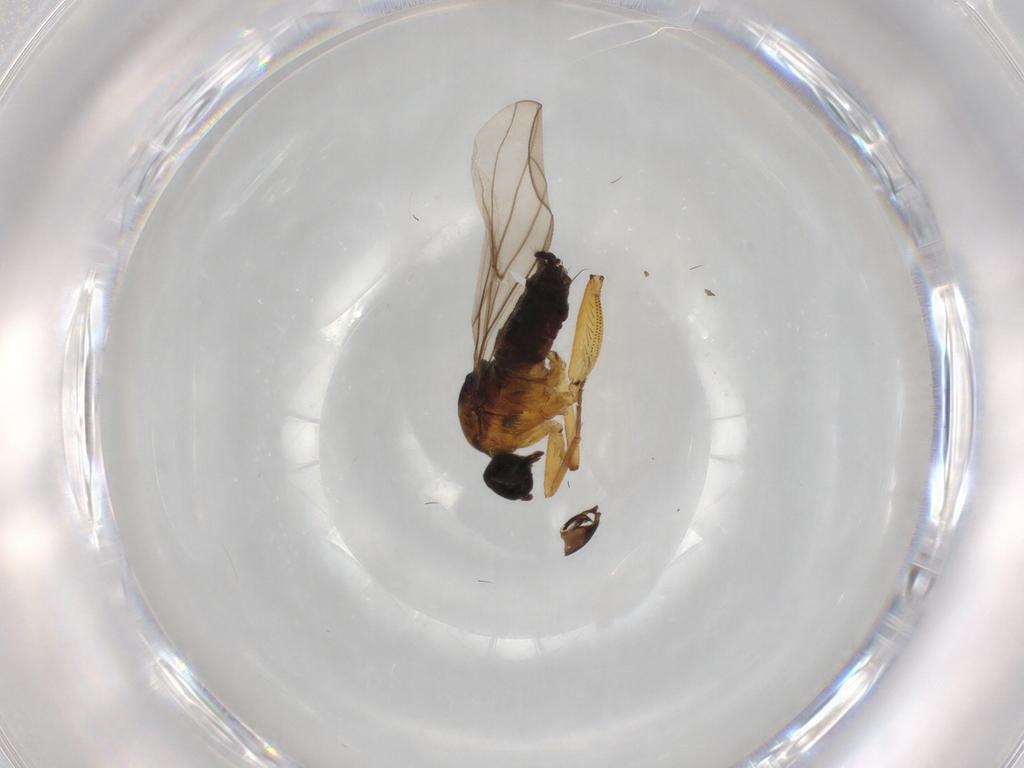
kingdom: Animalia
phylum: Arthropoda
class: Insecta
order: Diptera
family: Hybotidae
